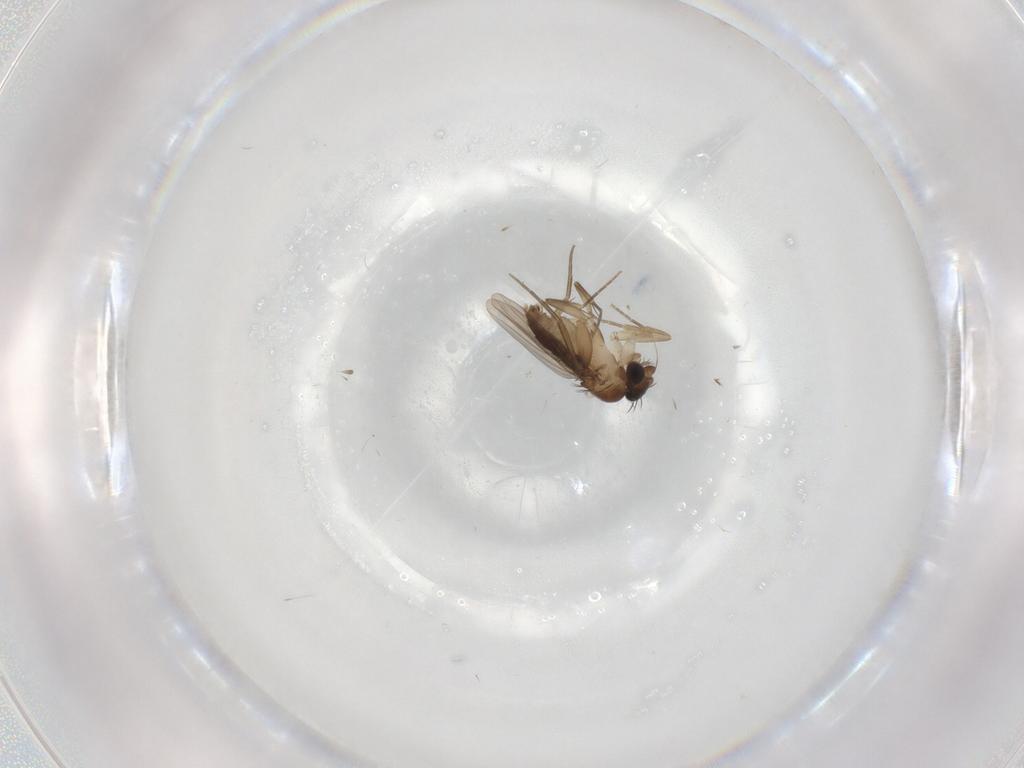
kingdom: Animalia
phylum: Arthropoda
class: Insecta
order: Diptera
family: Phoridae
